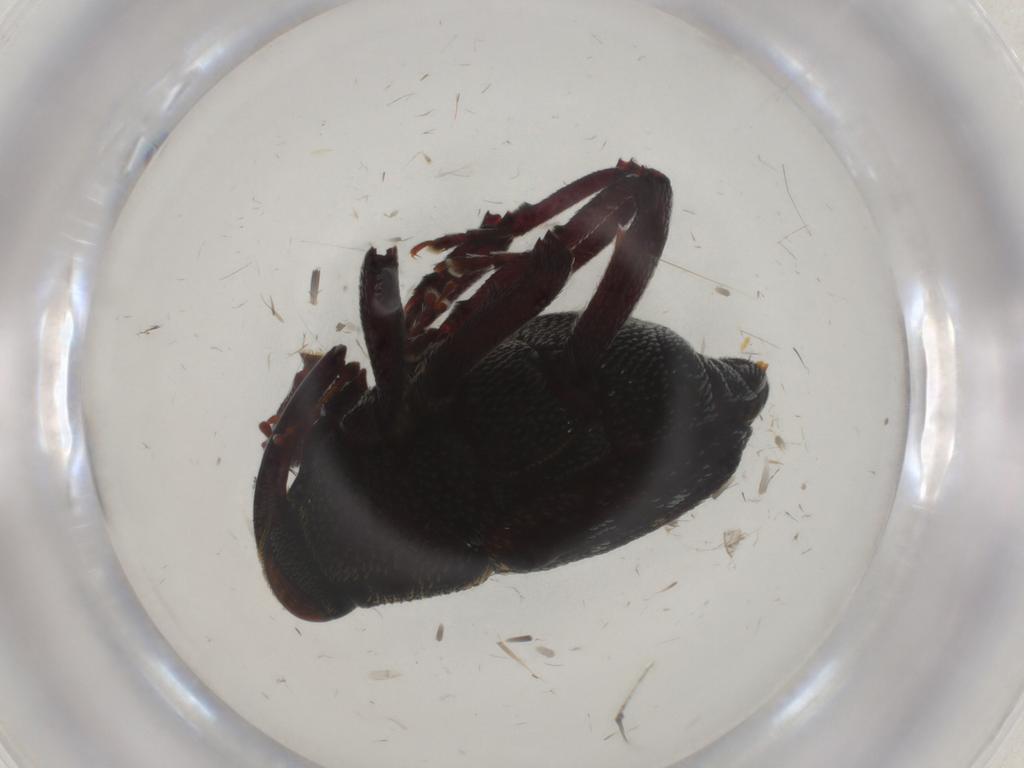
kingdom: Animalia
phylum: Arthropoda
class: Insecta
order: Coleoptera
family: Curculionidae
